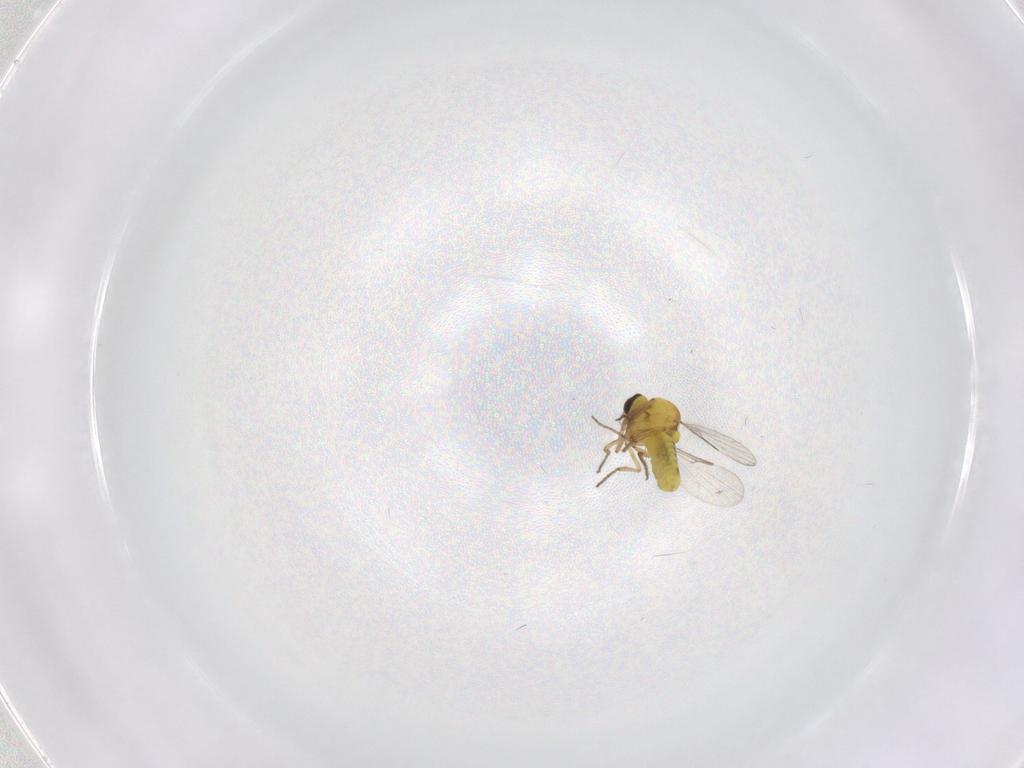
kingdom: Animalia
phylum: Arthropoda
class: Insecta
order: Diptera
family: Ceratopogonidae
